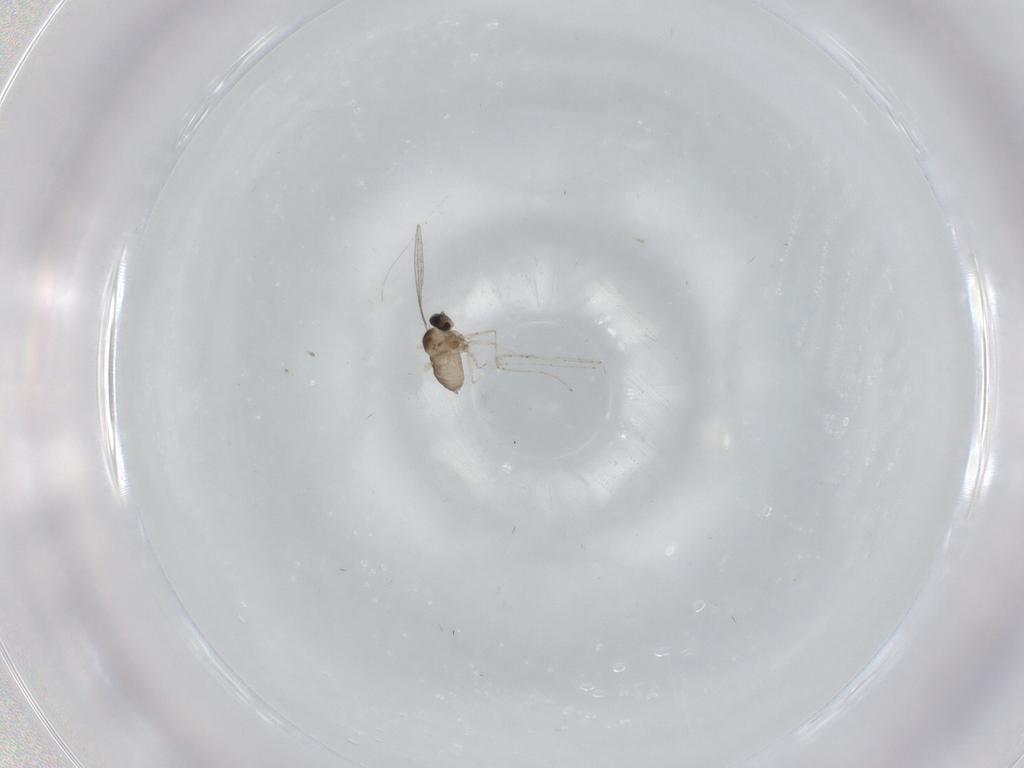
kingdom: Animalia
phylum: Arthropoda
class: Insecta
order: Diptera
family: Cecidomyiidae
